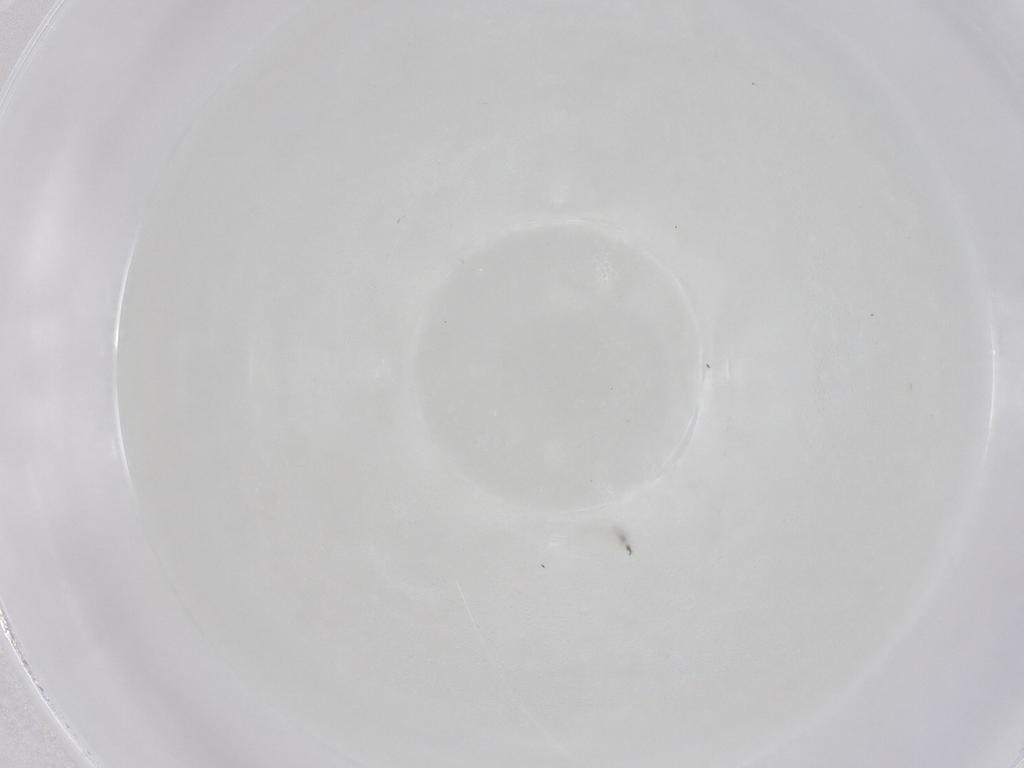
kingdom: Animalia
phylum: Arthropoda
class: Insecta
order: Diptera
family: Oestridae
